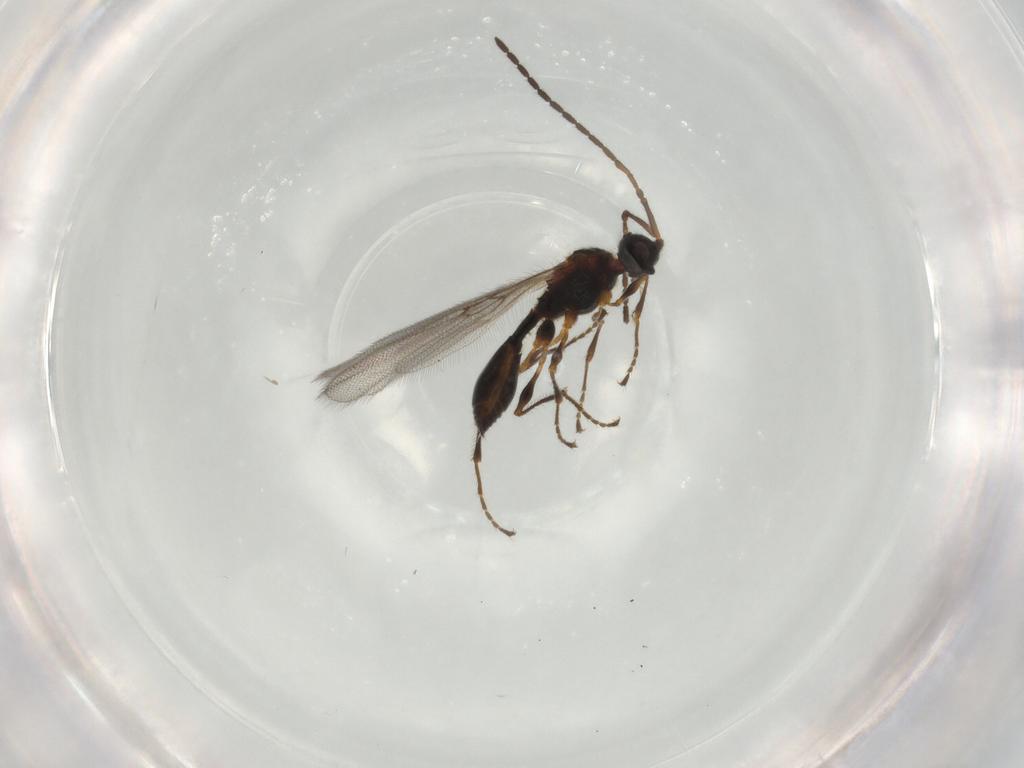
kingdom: Animalia
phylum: Arthropoda
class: Insecta
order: Hymenoptera
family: Diapriidae
